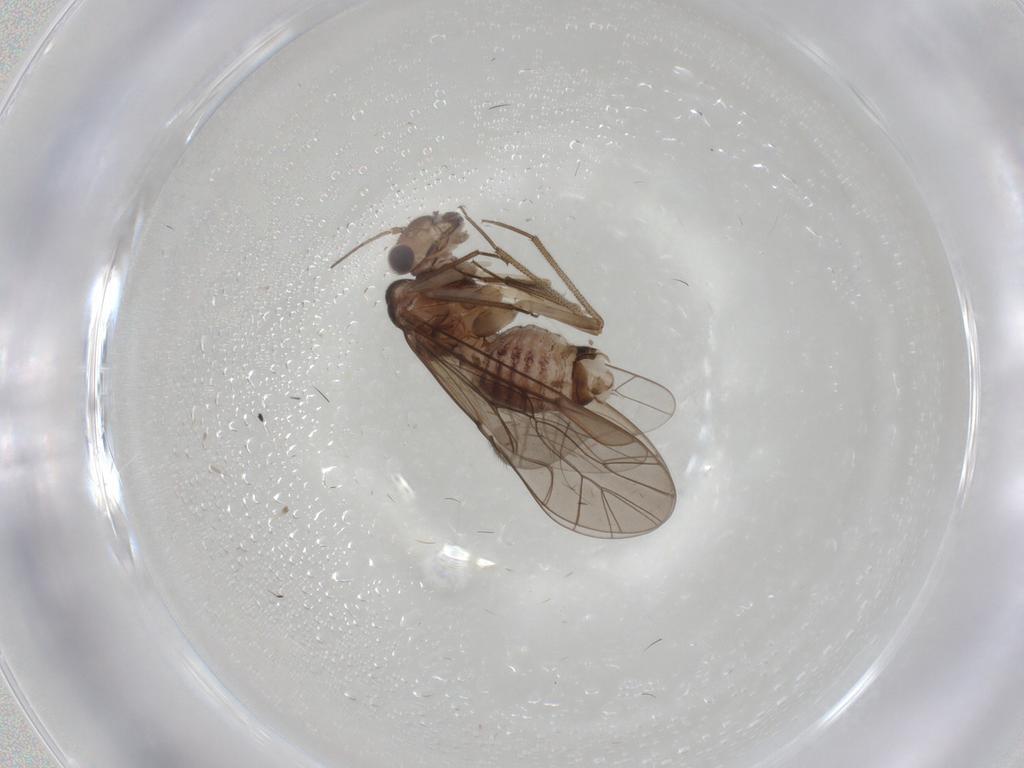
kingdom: Animalia
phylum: Arthropoda
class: Insecta
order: Psocodea
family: Lachesillidae
